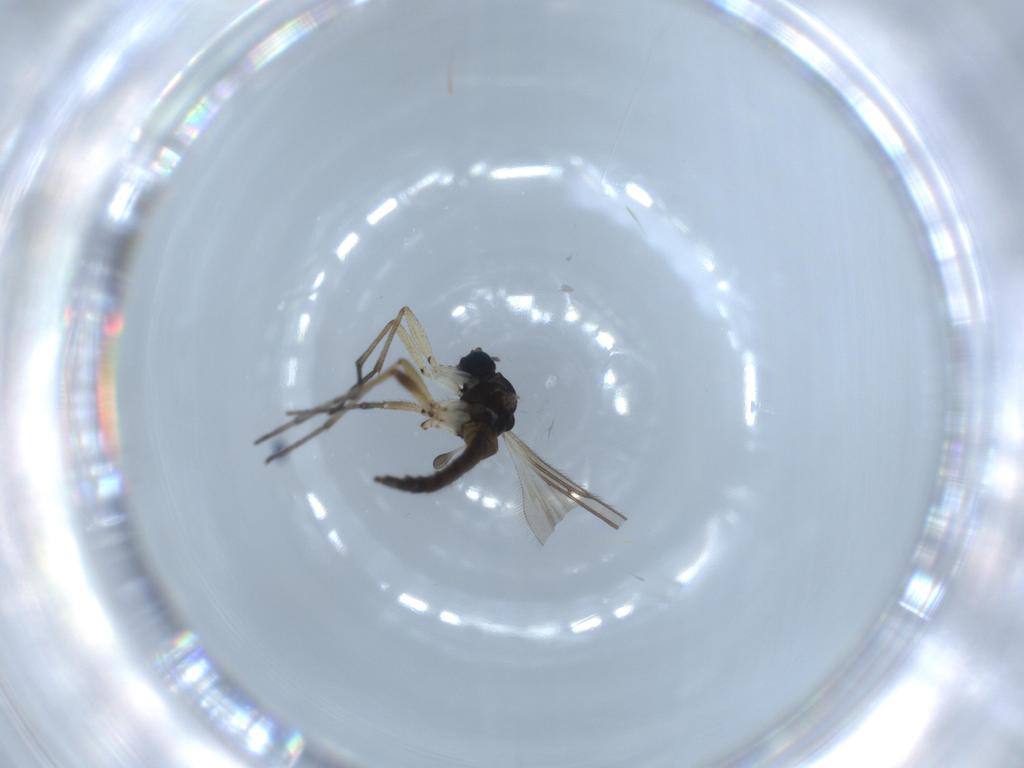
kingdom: Animalia
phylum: Arthropoda
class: Insecta
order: Diptera
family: Sciaridae
